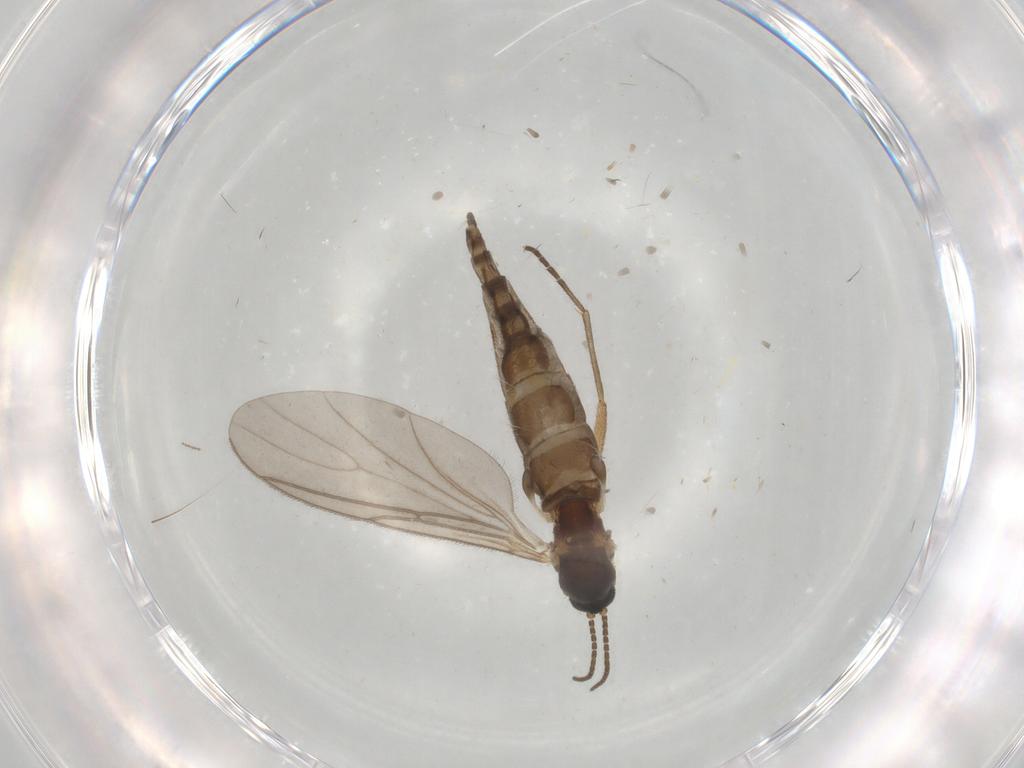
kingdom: Animalia
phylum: Arthropoda
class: Insecta
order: Diptera
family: Sciaridae
